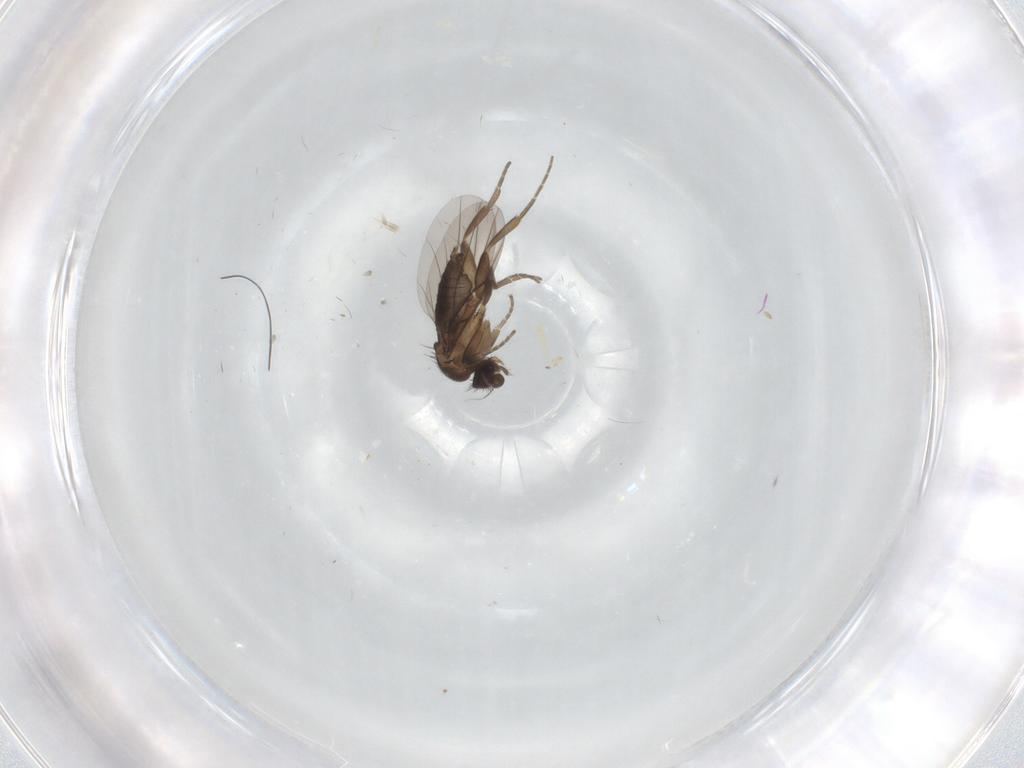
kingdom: Animalia
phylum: Arthropoda
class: Insecta
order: Diptera
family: Cecidomyiidae
